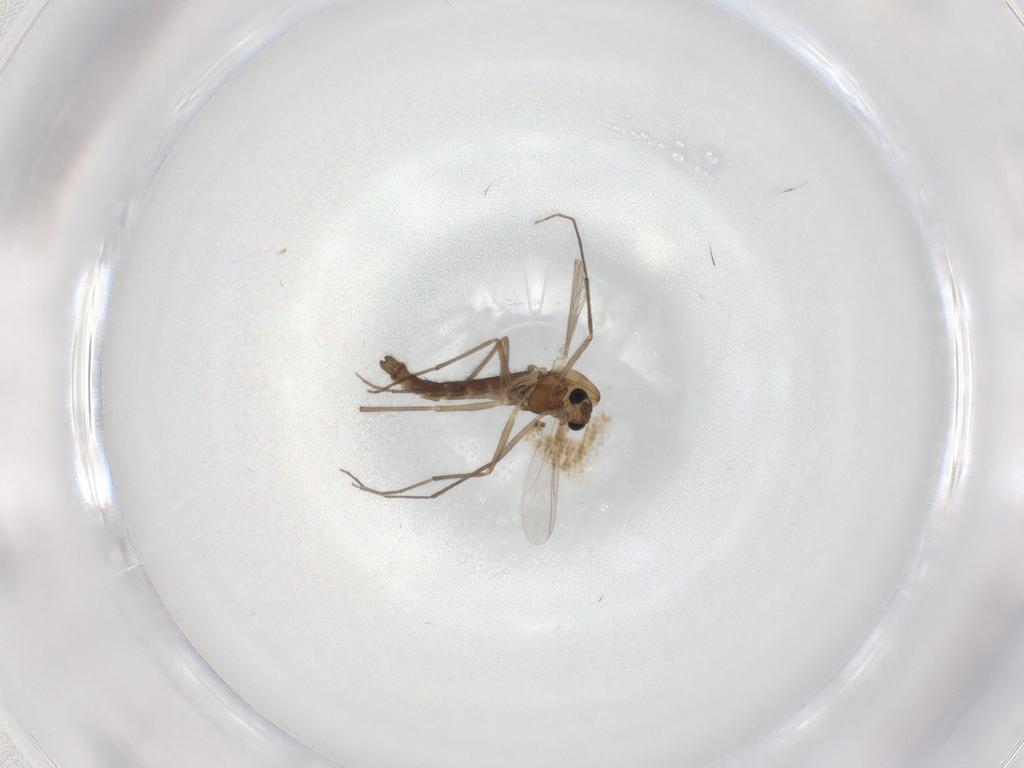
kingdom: Animalia
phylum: Arthropoda
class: Insecta
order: Diptera
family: Chironomidae
